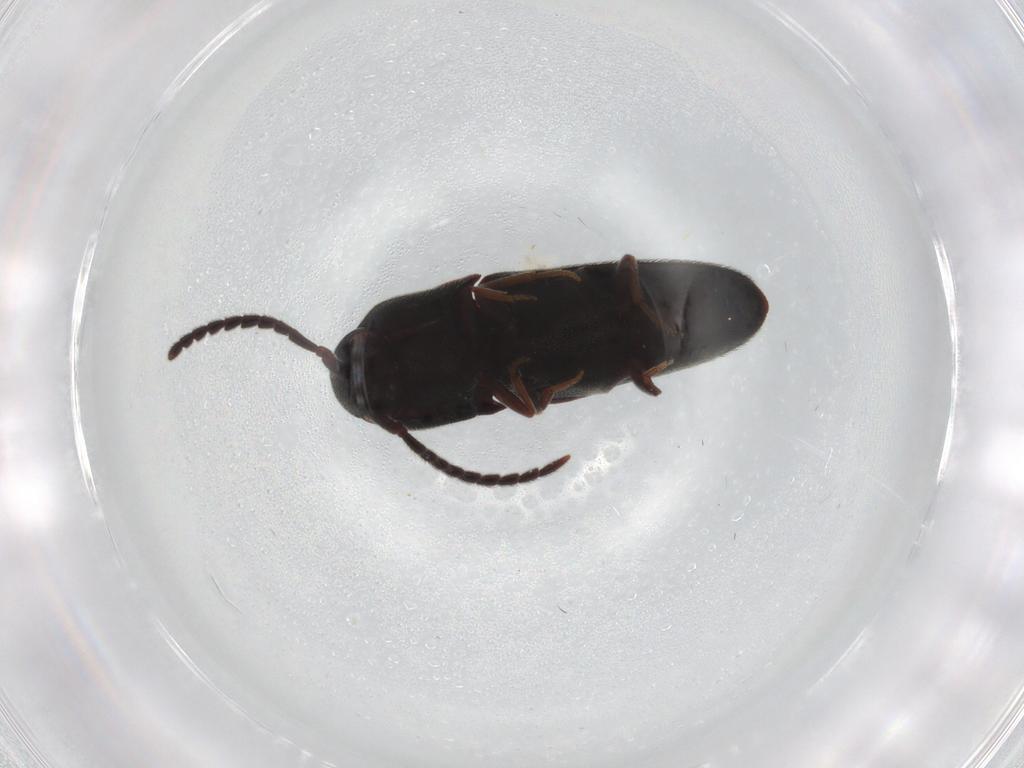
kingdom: Animalia
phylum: Arthropoda
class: Insecta
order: Coleoptera
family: Eucnemidae
